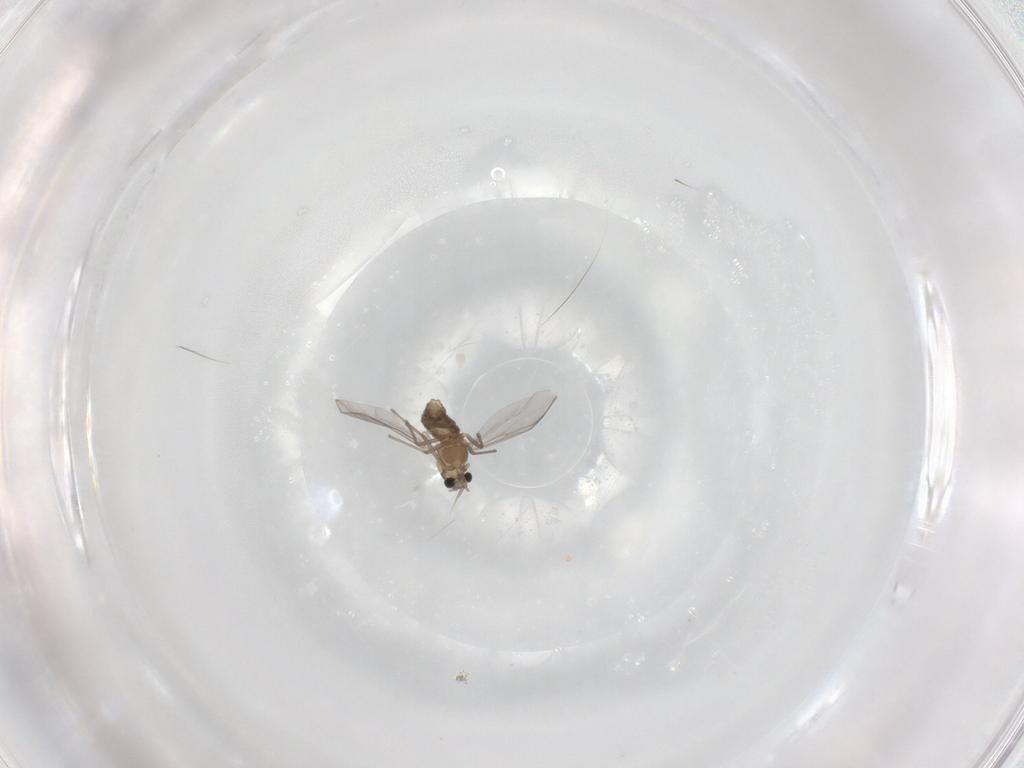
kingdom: Animalia
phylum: Arthropoda
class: Insecta
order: Diptera
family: Chironomidae
